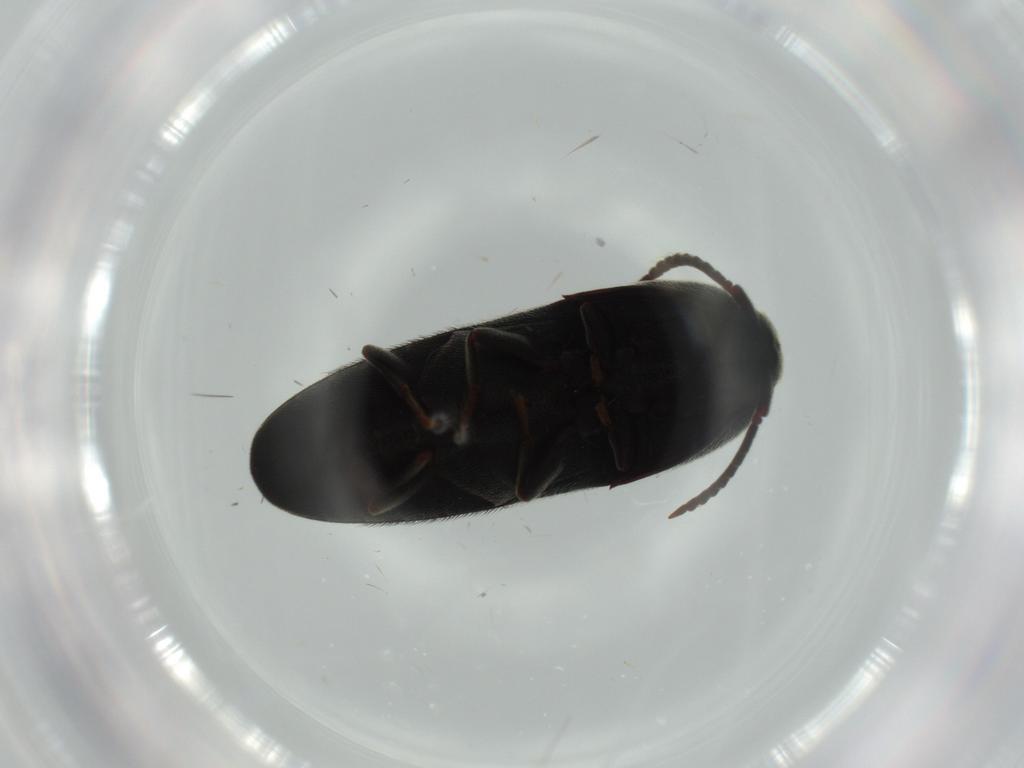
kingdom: Animalia
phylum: Arthropoda
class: Insecta
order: Coleoptera
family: Eucnemidae
